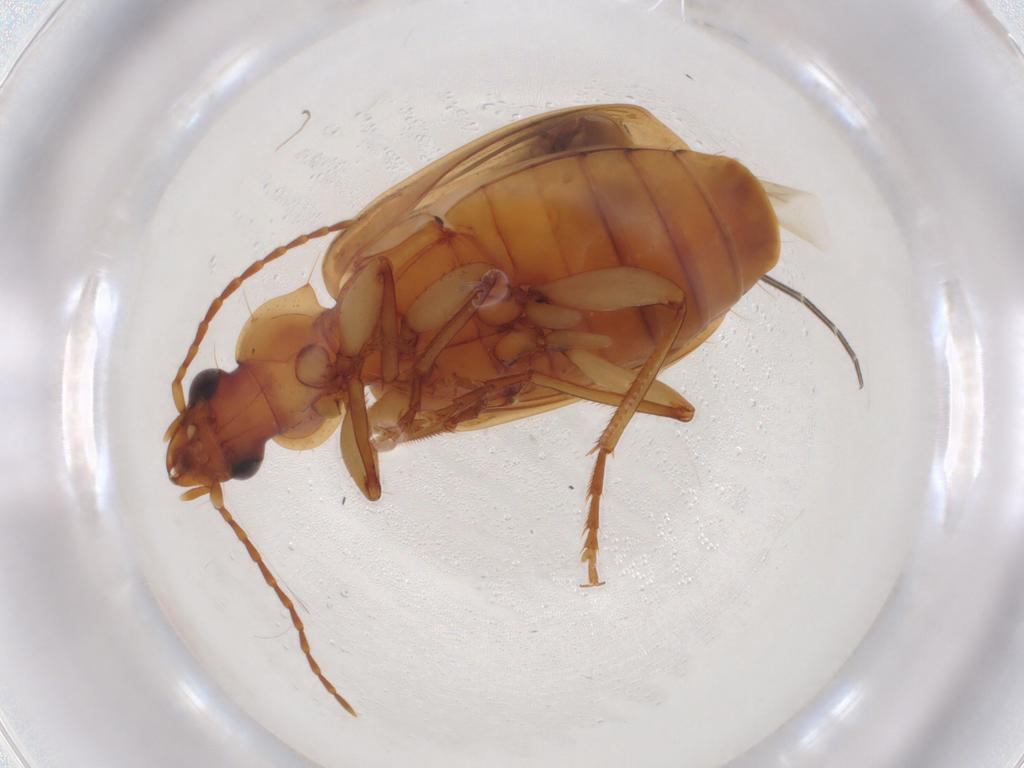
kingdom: Animalia
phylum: Arthropoda
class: Insecta
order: Coleoptera
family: Carabidae
